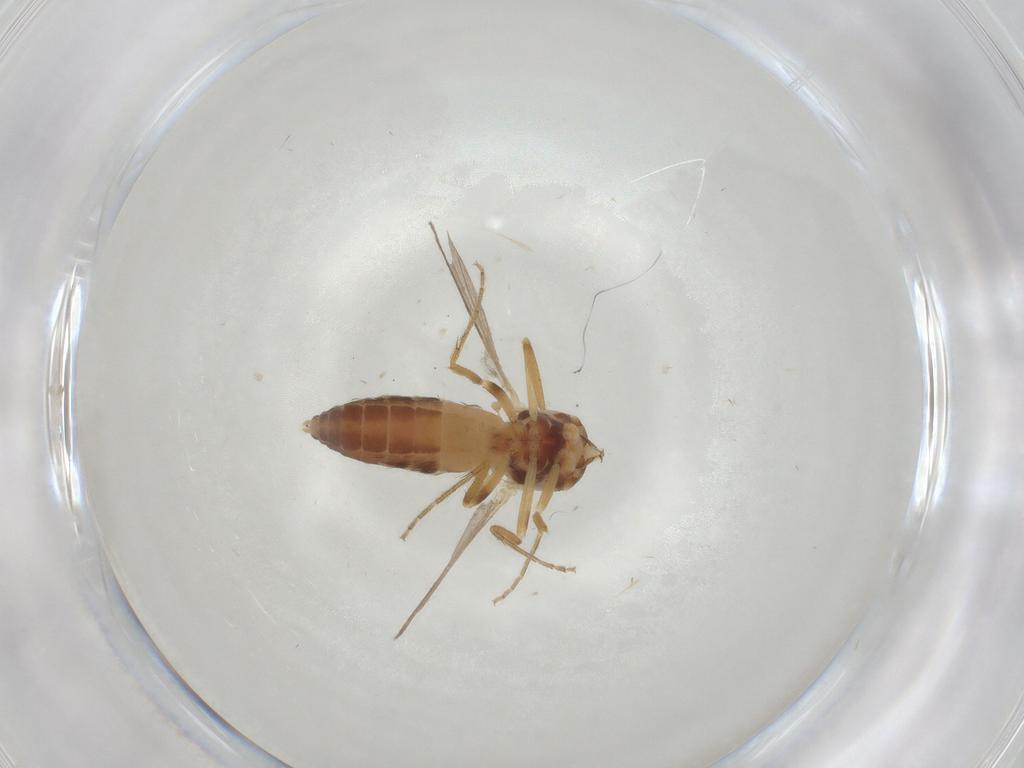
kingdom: Animalia
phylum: Arthropoda
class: Insecta
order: Diptera
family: Ceratopogonidae
